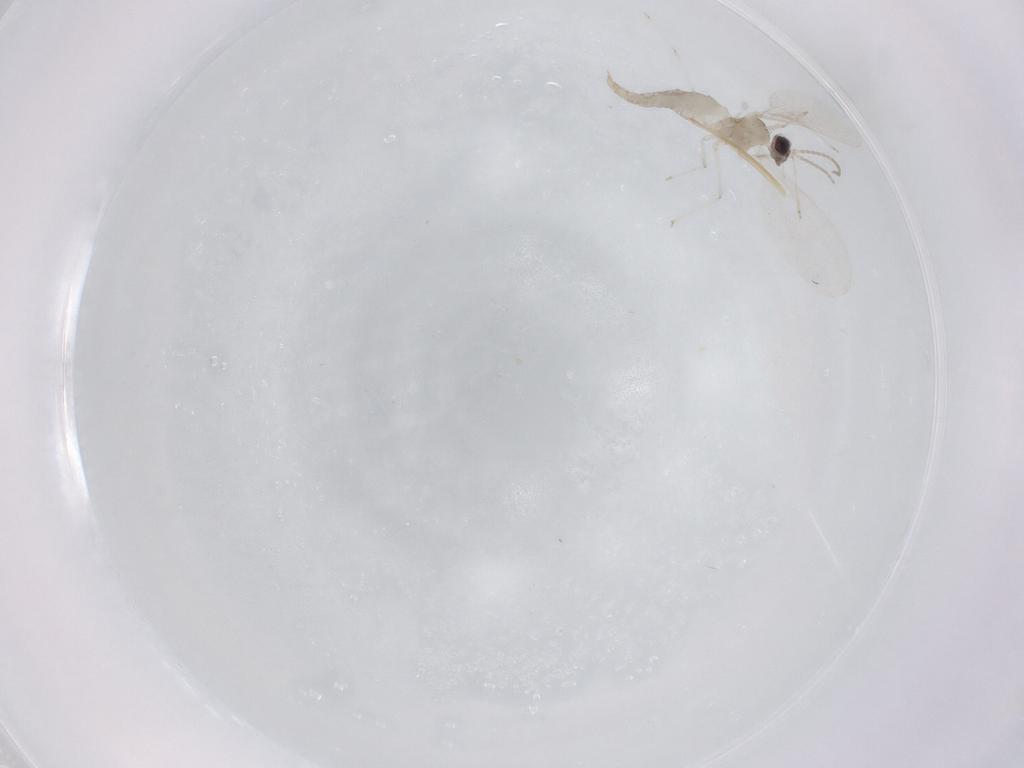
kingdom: Animalia
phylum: Arthropoda
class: Insecta
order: Diptera
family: Cecidomyiidae
